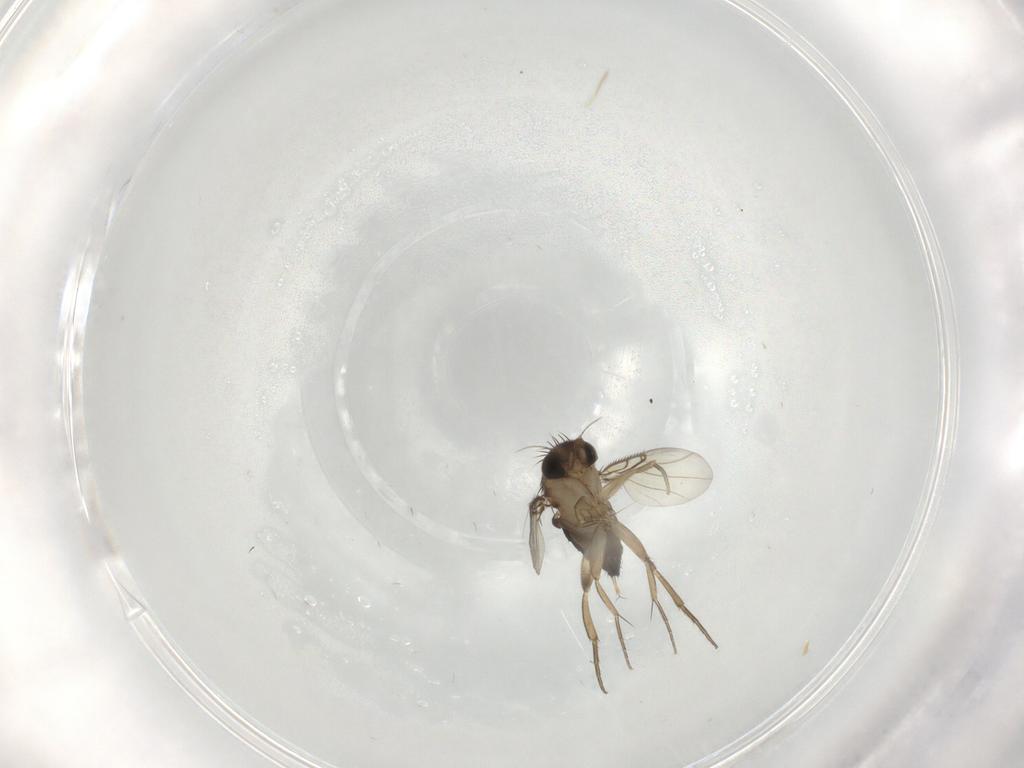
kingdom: Animalia
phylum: Arthropoda
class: Insecta
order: Diptera
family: Phoridae
